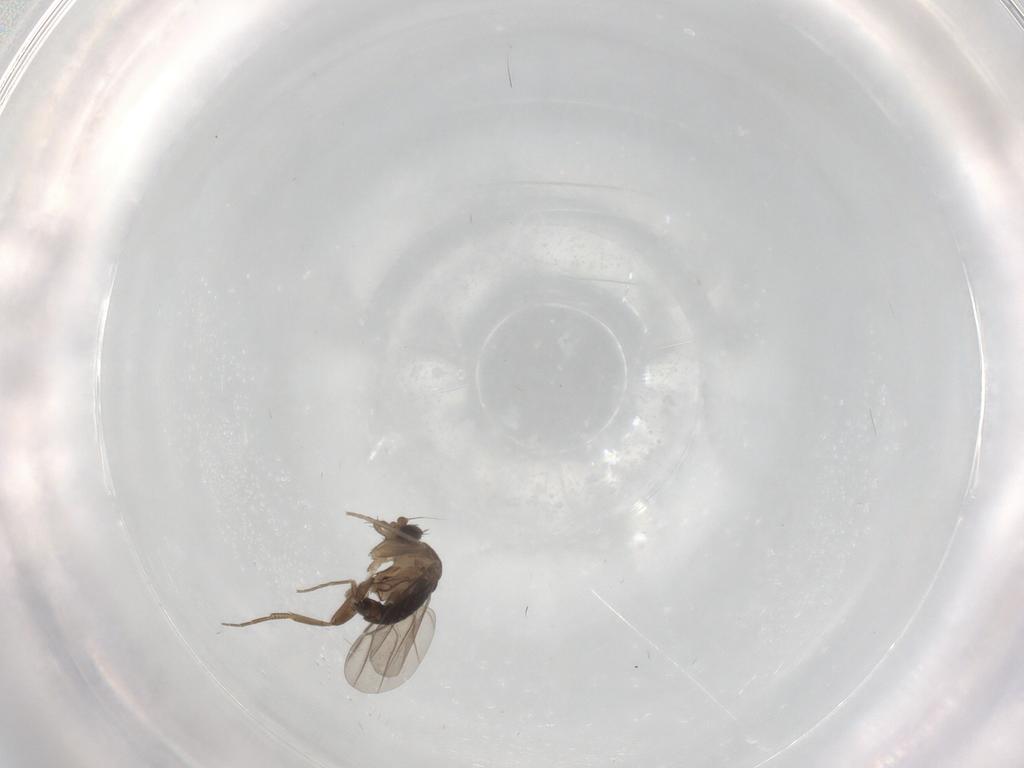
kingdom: Animalia
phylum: Arthropoda
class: Insecta
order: Diptera
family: Phoridae
